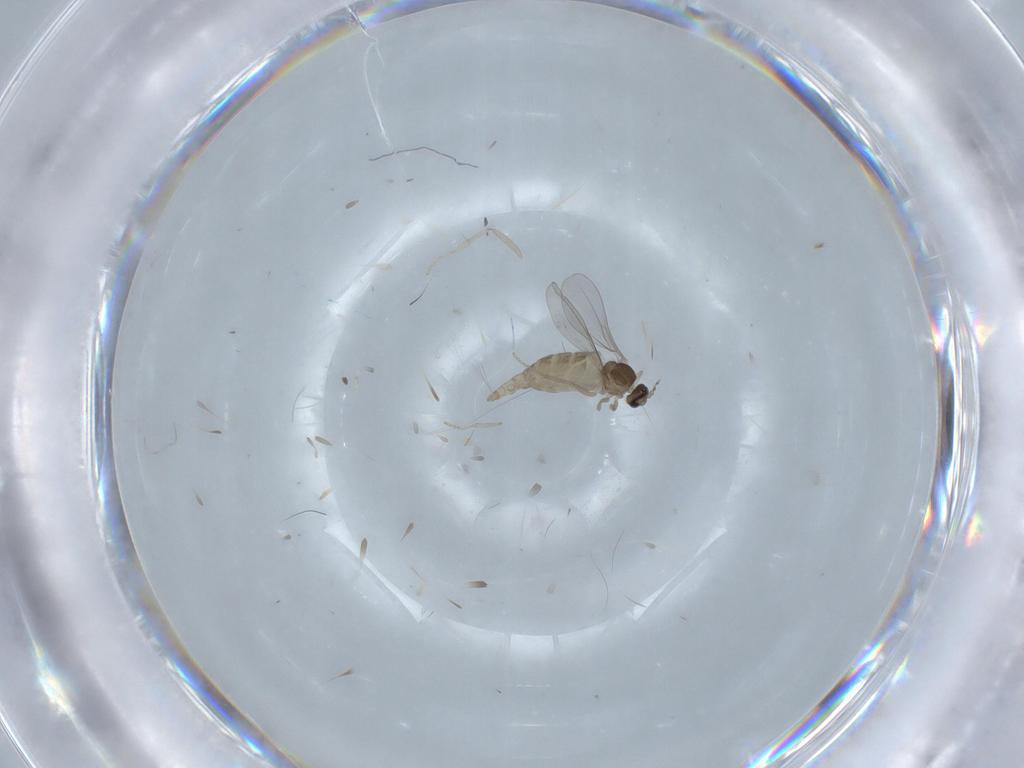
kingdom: Animalia
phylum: Arthropoda
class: Insecta
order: Diptera
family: Cecidomyiidae
